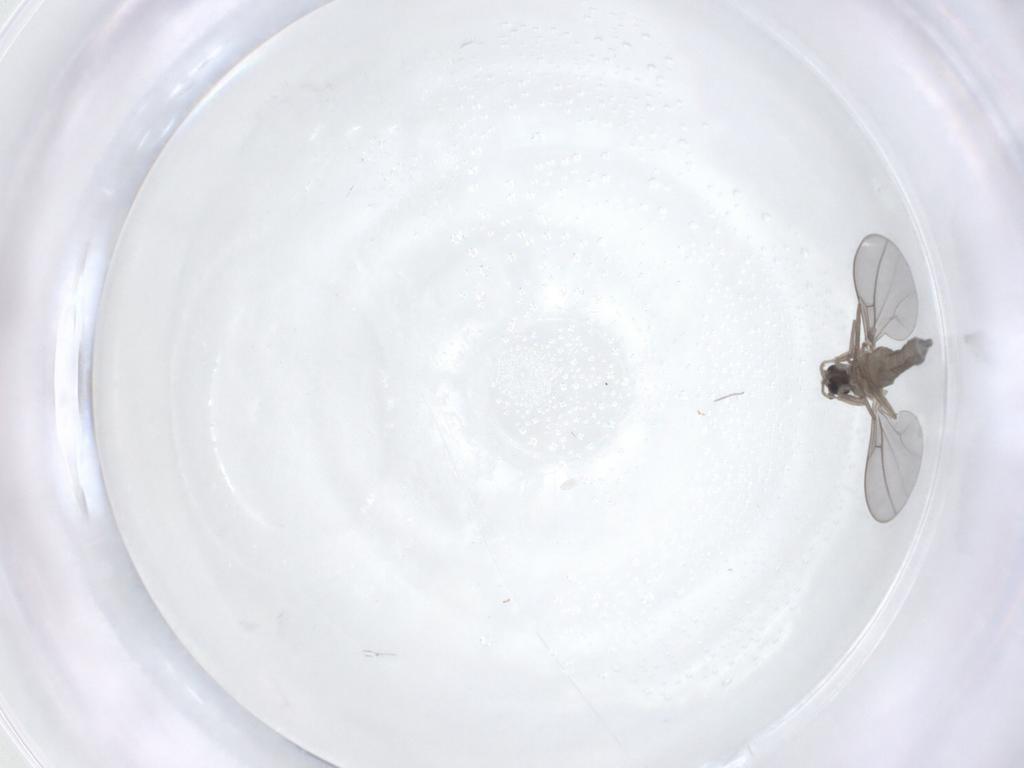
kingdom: Animalia
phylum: Arthropoda
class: Insecta
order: Diptera
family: Cecidomyiidae
